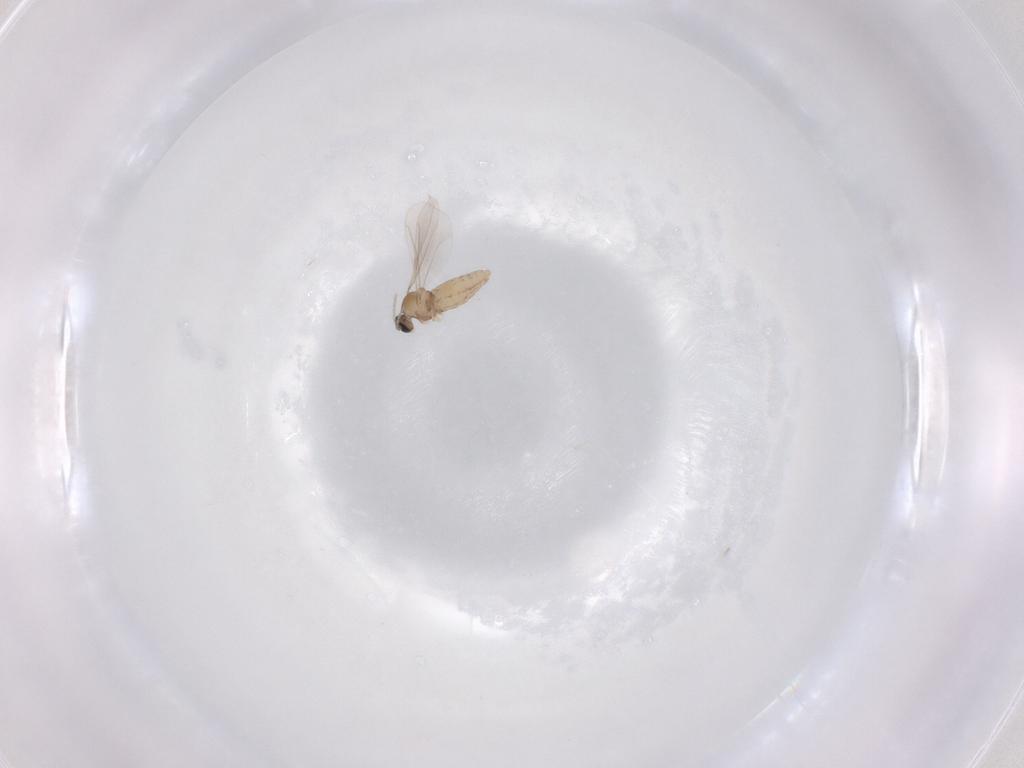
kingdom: Animalia
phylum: Arthropoda
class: Insecta
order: Diptera
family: Cecidomyiidae
